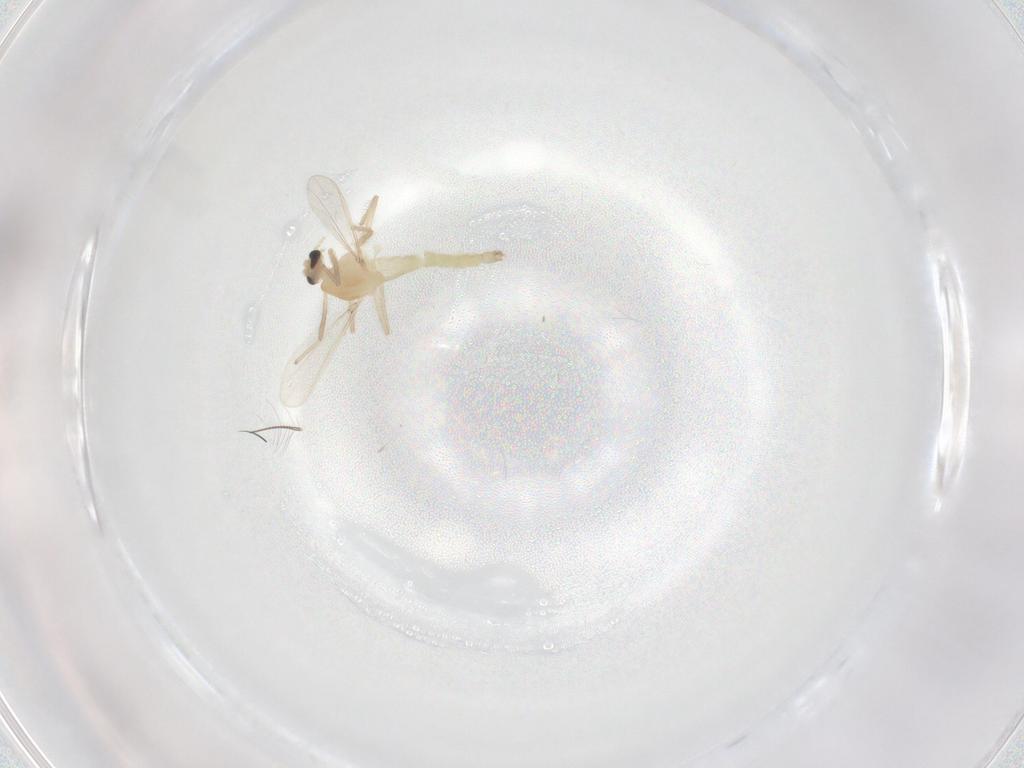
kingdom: Animalia
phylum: Arthropoda
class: Insecta
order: Diptera
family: Chironomidae
